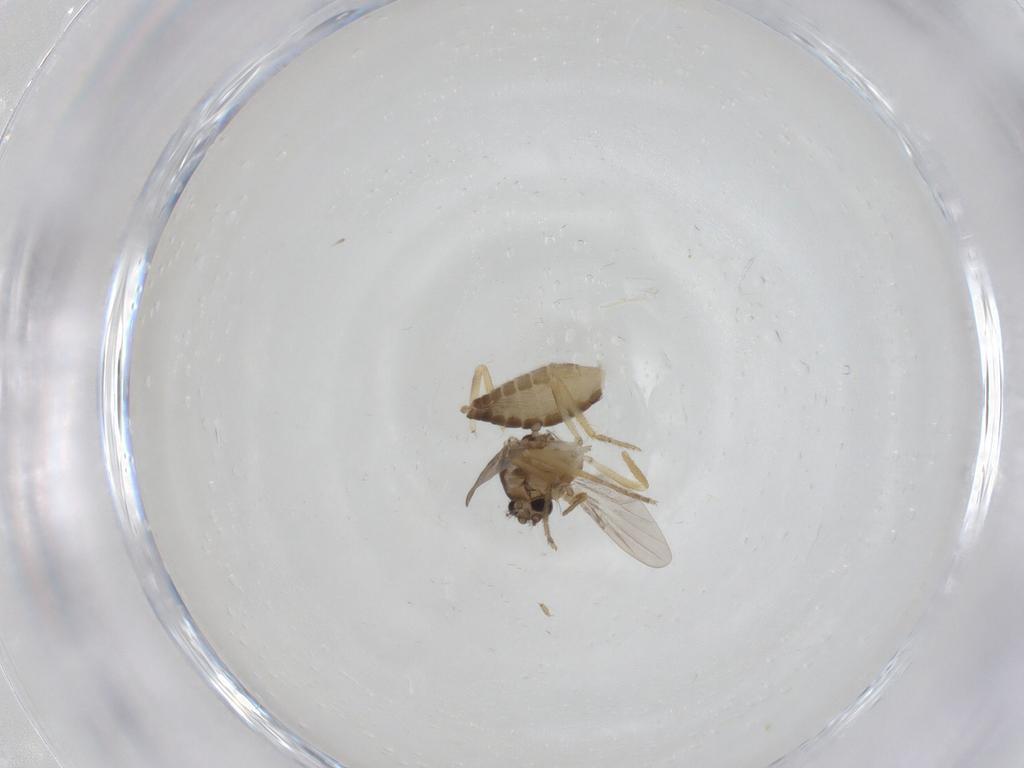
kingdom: Animalia
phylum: Arthropoda
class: Insecta
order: Diptera
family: Ceratopogonidae
